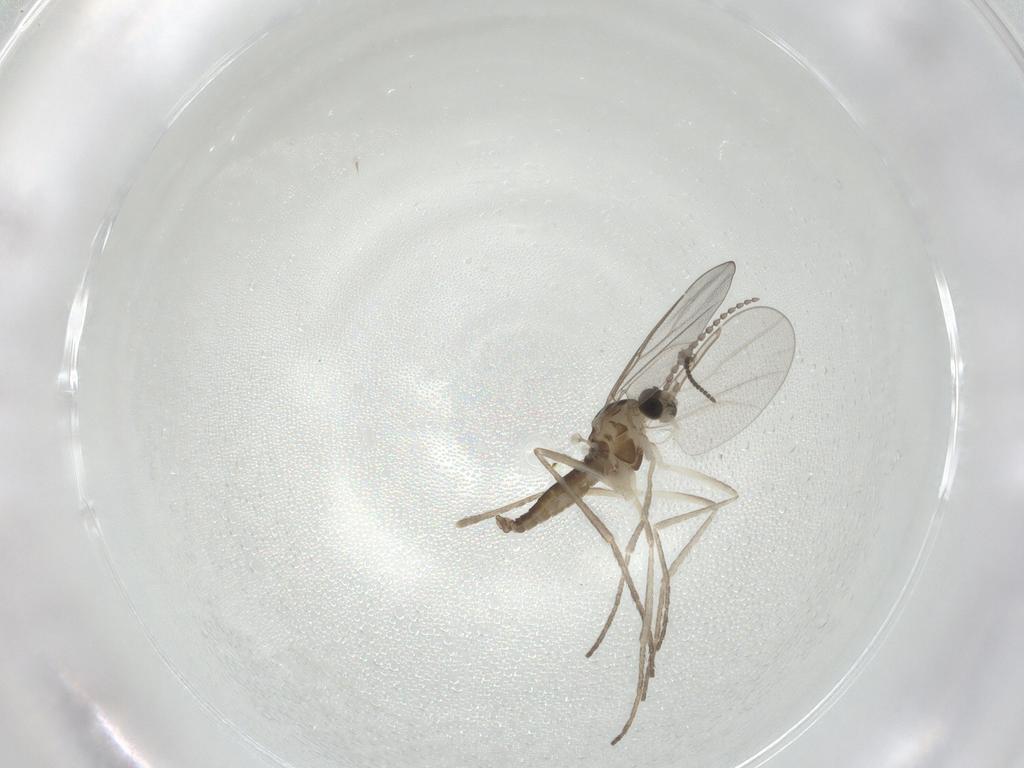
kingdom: Animalia
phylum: Arthropoda
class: Insecta
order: Diptera
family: Cecidomyiidae
